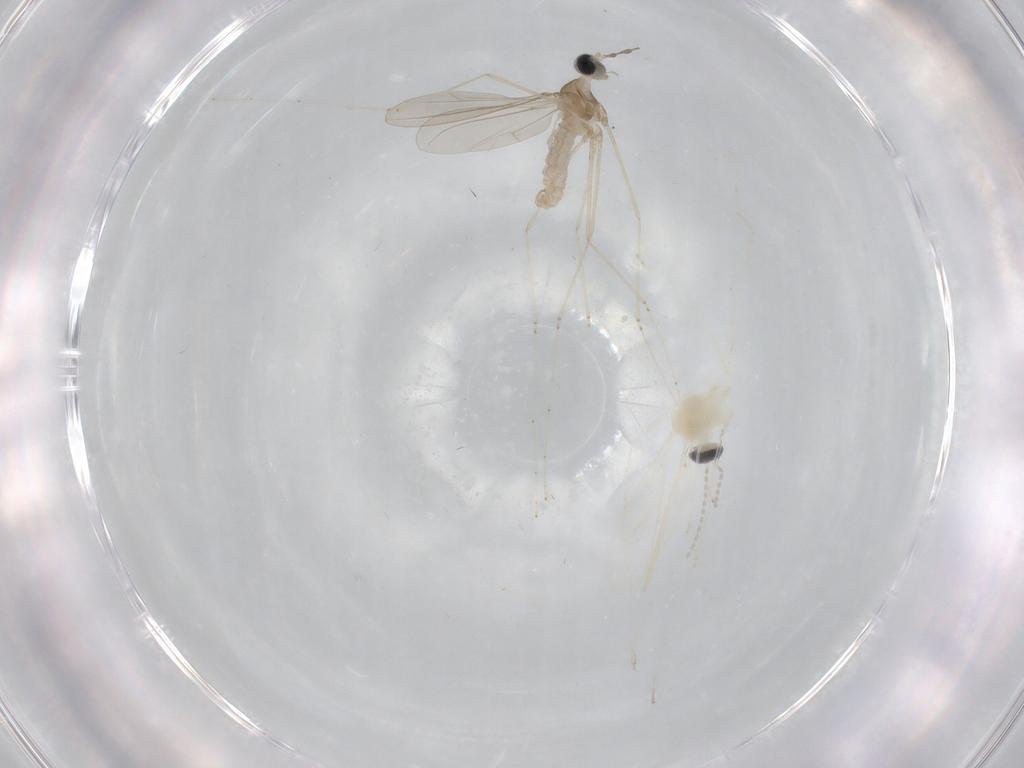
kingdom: Animalia
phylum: Arthropoda
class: Insecta
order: Diptera
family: Cecidomyiidae
